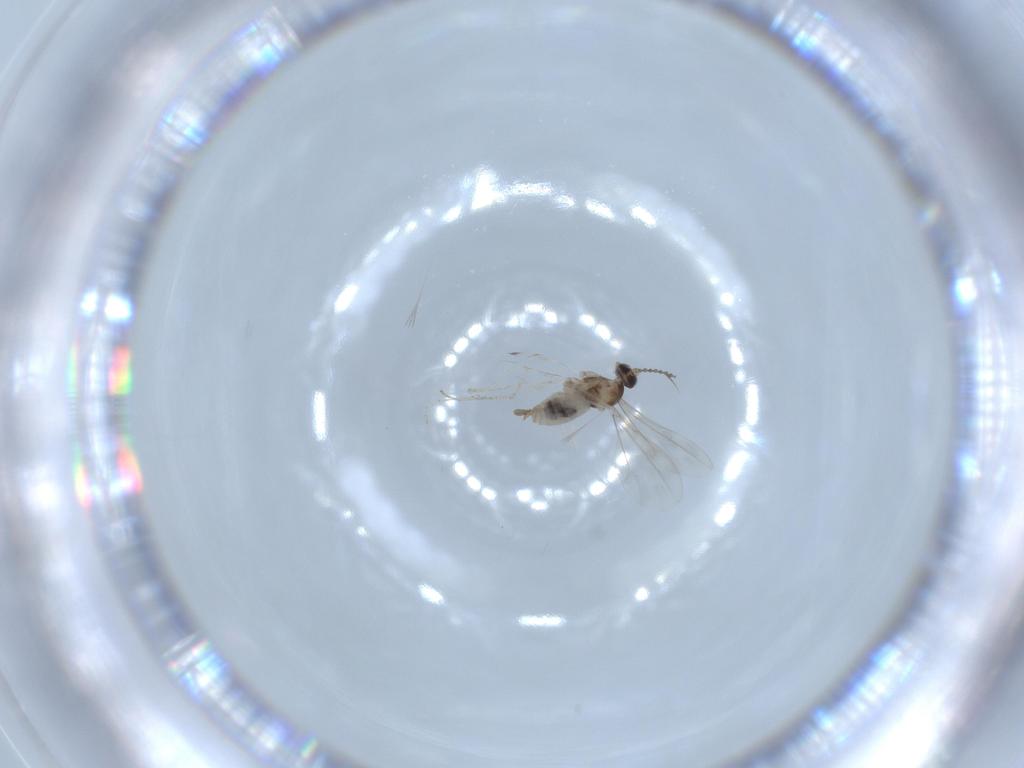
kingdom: Animalia
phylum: Arthropoda
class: Insecta
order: Diptera
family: Cecidomyiidae
